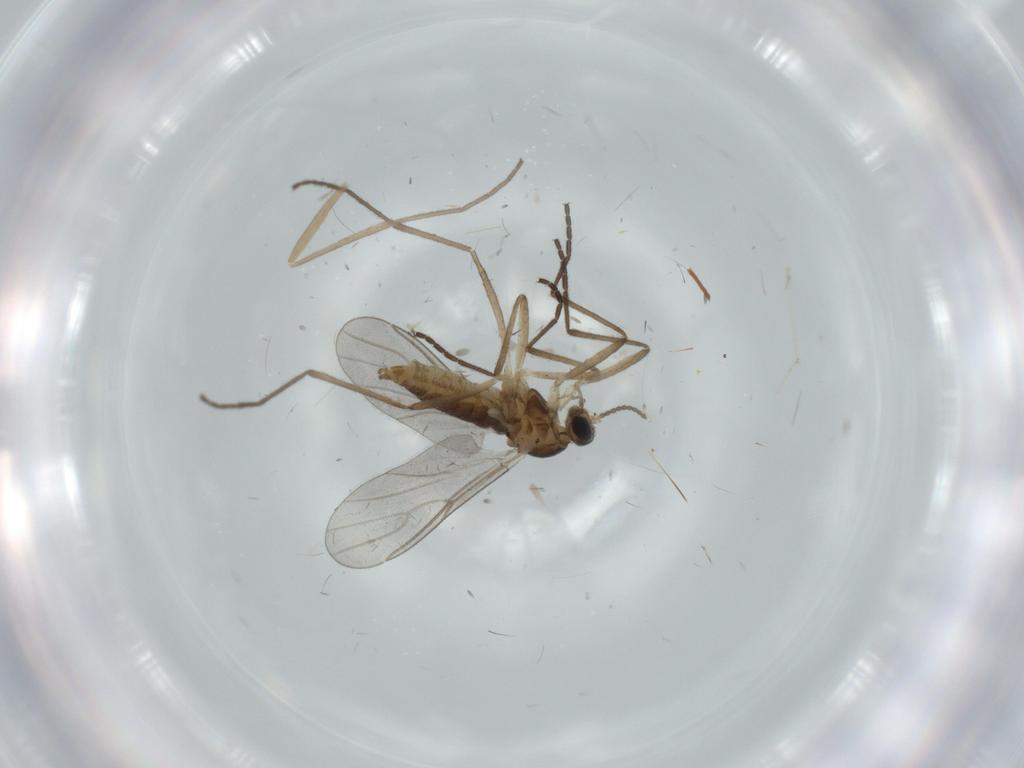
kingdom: Animalia
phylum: Arthropoda
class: Insecta
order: Diptera
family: Cecidomyiidae
